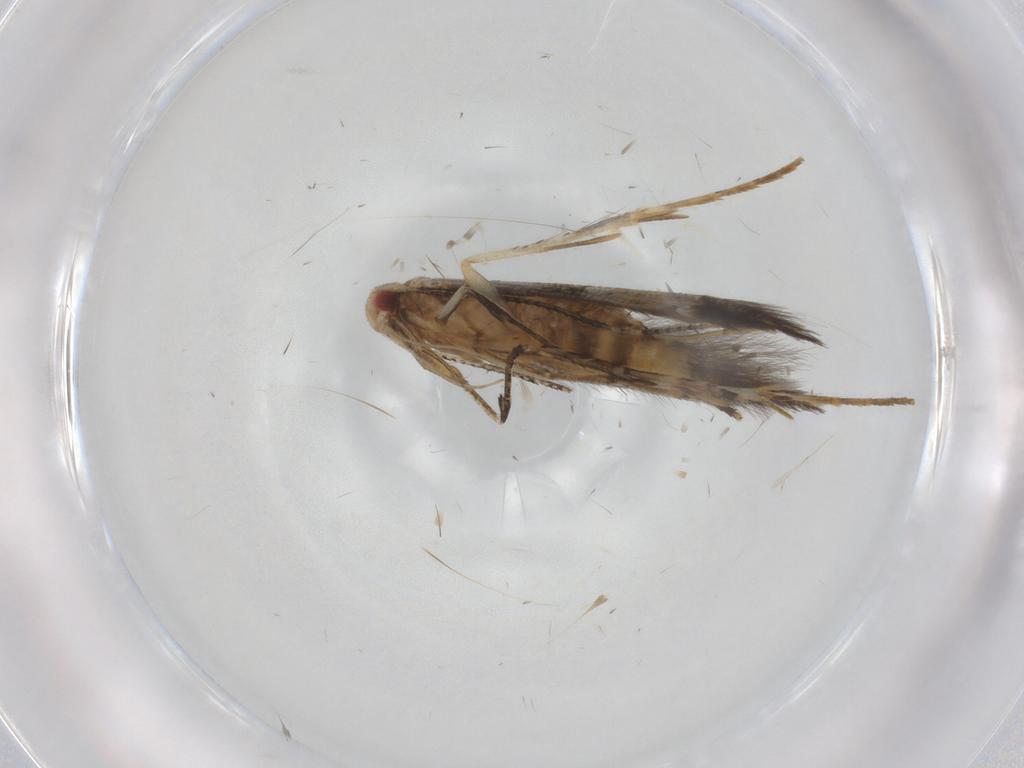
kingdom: Animalia
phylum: Arthropoda
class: Insecta
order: Lepidoptera
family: Cosmopterigidae
